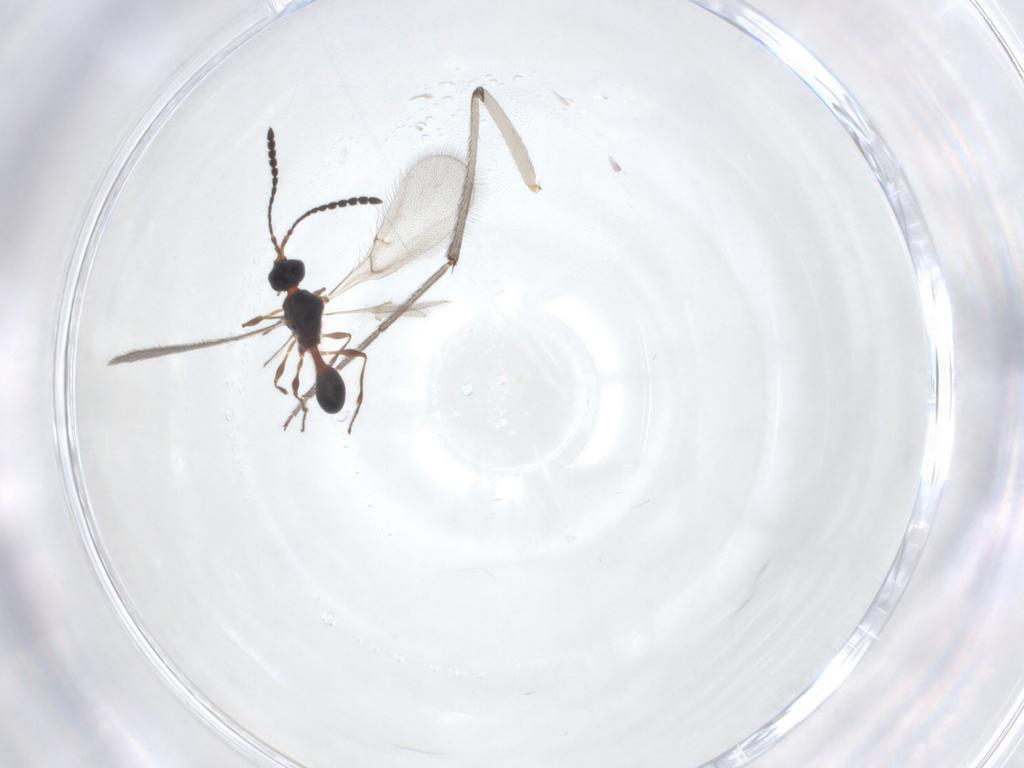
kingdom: Animalia
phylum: Arthropoda
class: Insecta
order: Hymenoptera
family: Diapriidae
